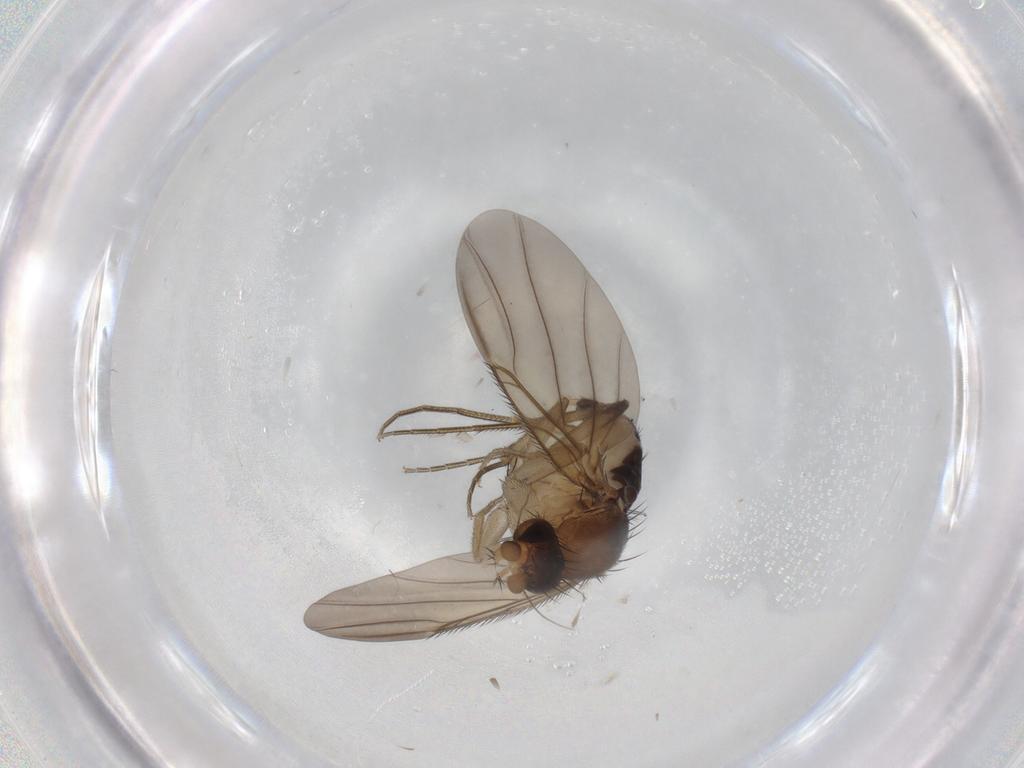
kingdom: Animalia
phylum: Arthropoda
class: Insecta
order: Diptera
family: Phoridae
